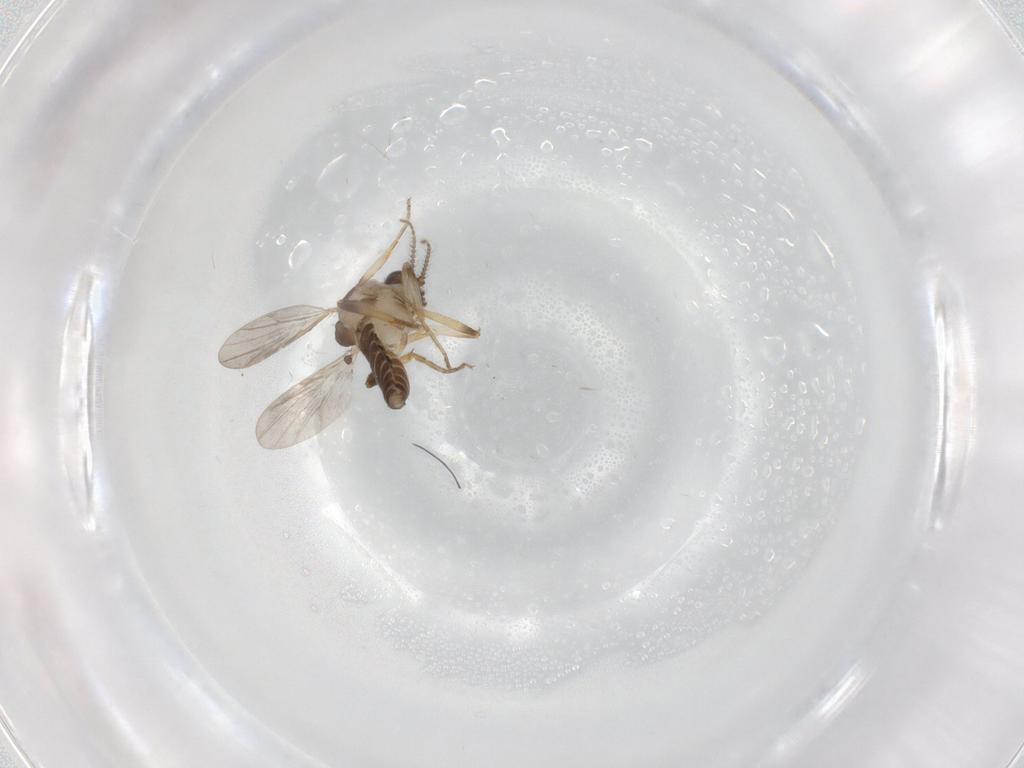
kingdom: Animalia
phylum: Arthropoda
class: Insecta
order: Diptera
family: Ceratopogonidae
